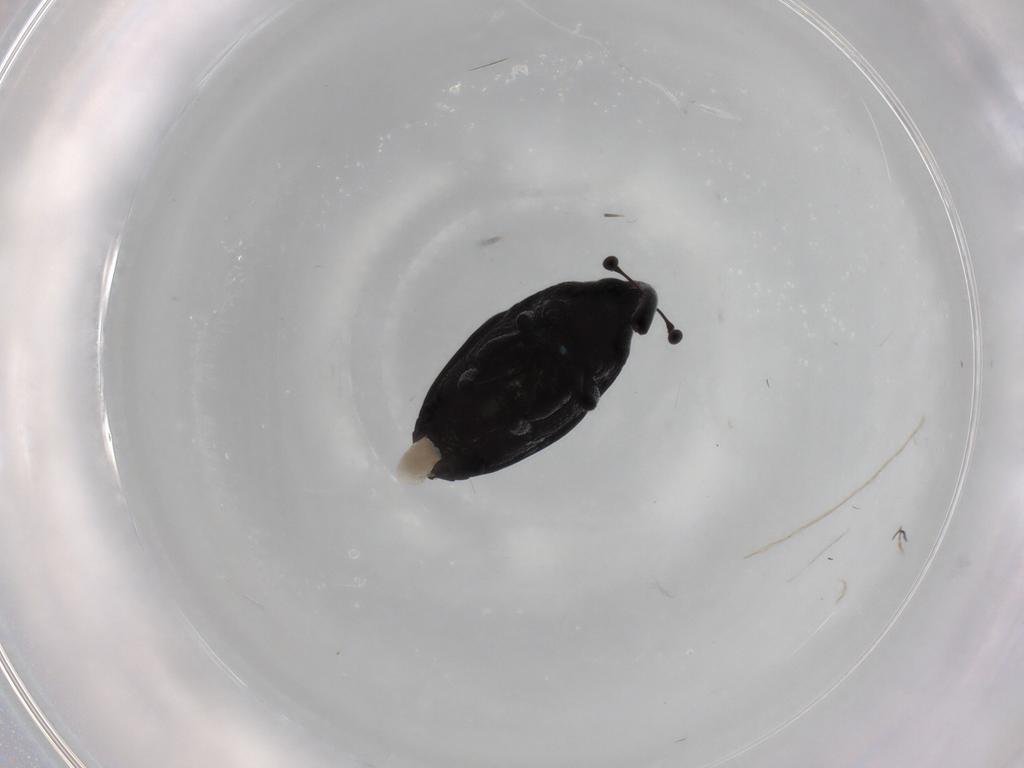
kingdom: Animalia
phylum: Arthropoda
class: Insecta
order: Coleoptera
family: Curculionidae
